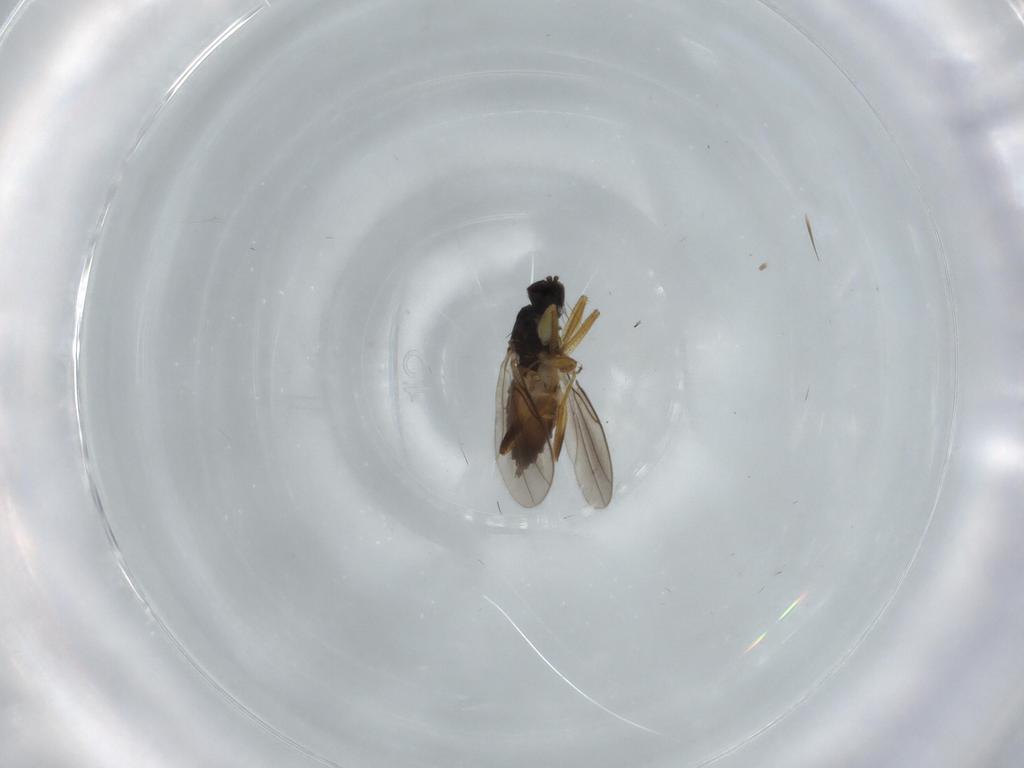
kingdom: Animalia
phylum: Arthropoda
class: Insecta
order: Diptera
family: Hybotidae
